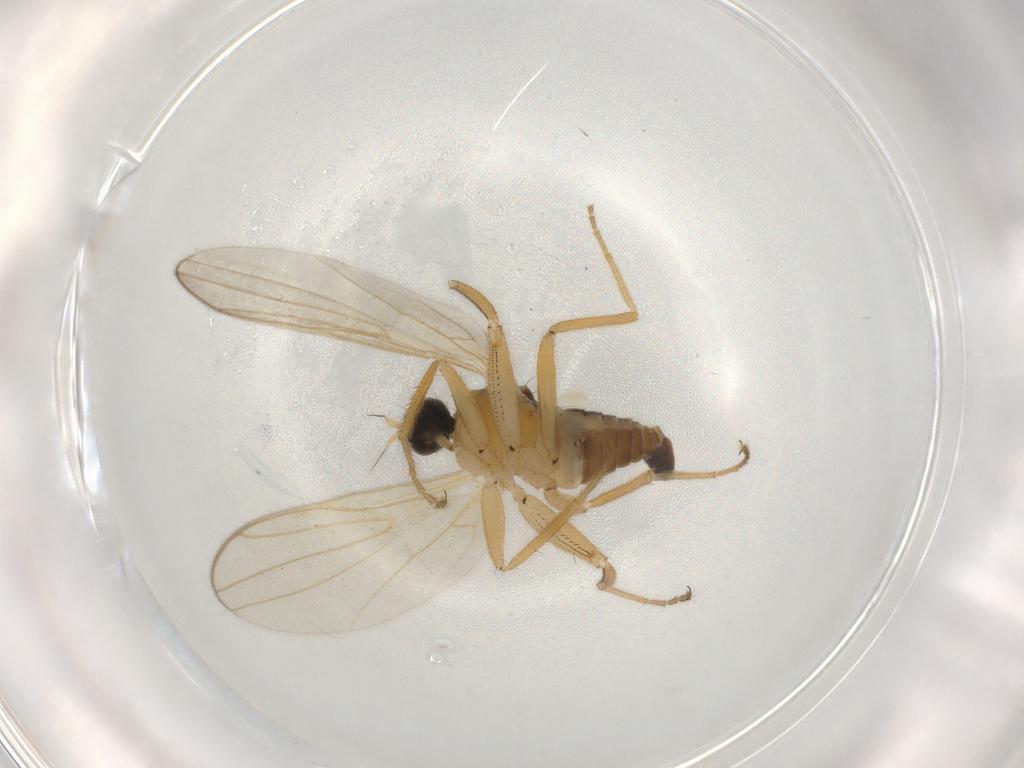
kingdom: Animalia
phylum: Arthropoda
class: Insecta
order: Diptera
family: Hybotidae
